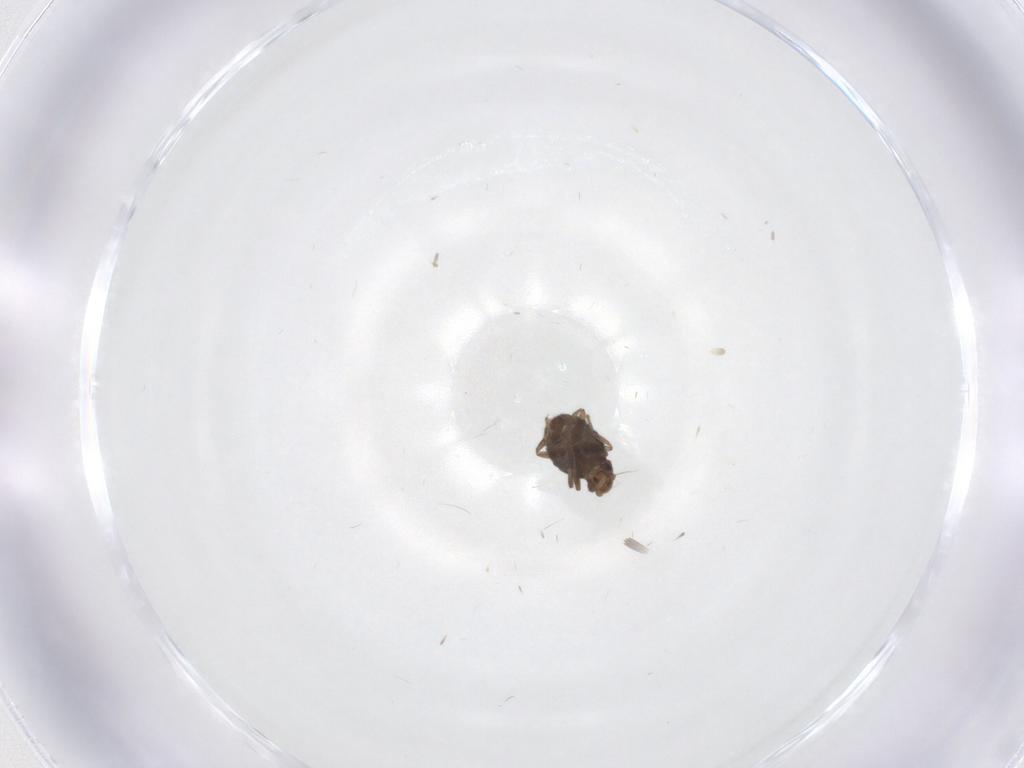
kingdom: Animalia
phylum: Arthropoda
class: Insecta
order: Diptera
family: Phoridae
